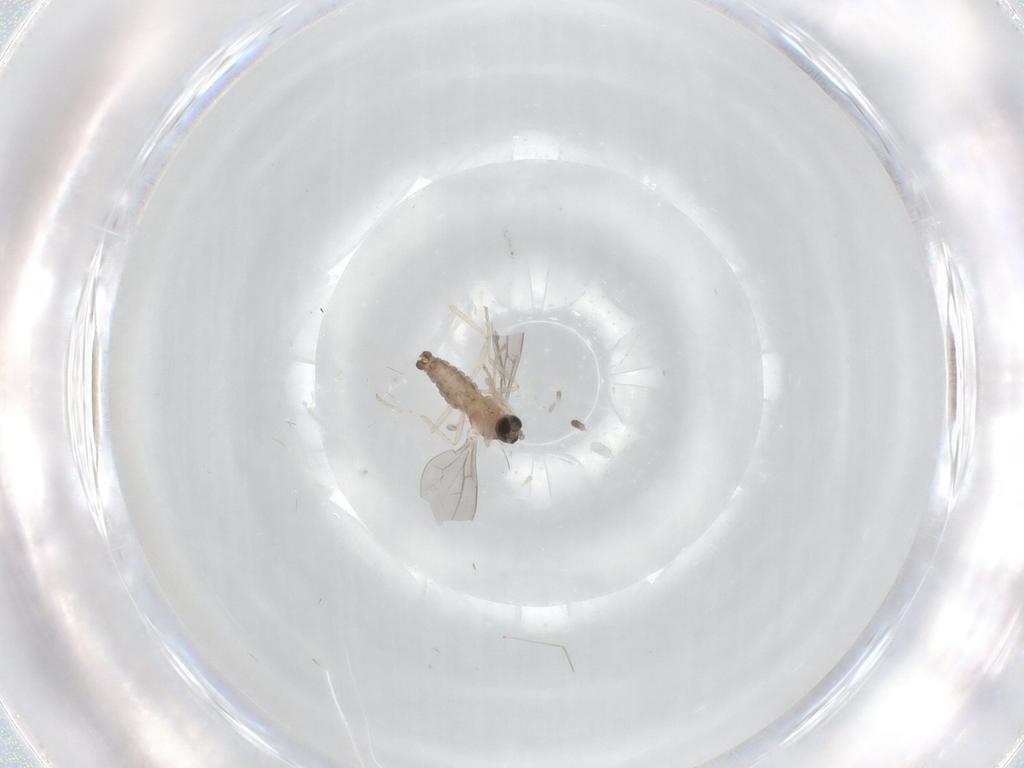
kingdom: Animalia
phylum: Arthropoda
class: Insecta
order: Diptera
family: Cecidomyiidae
